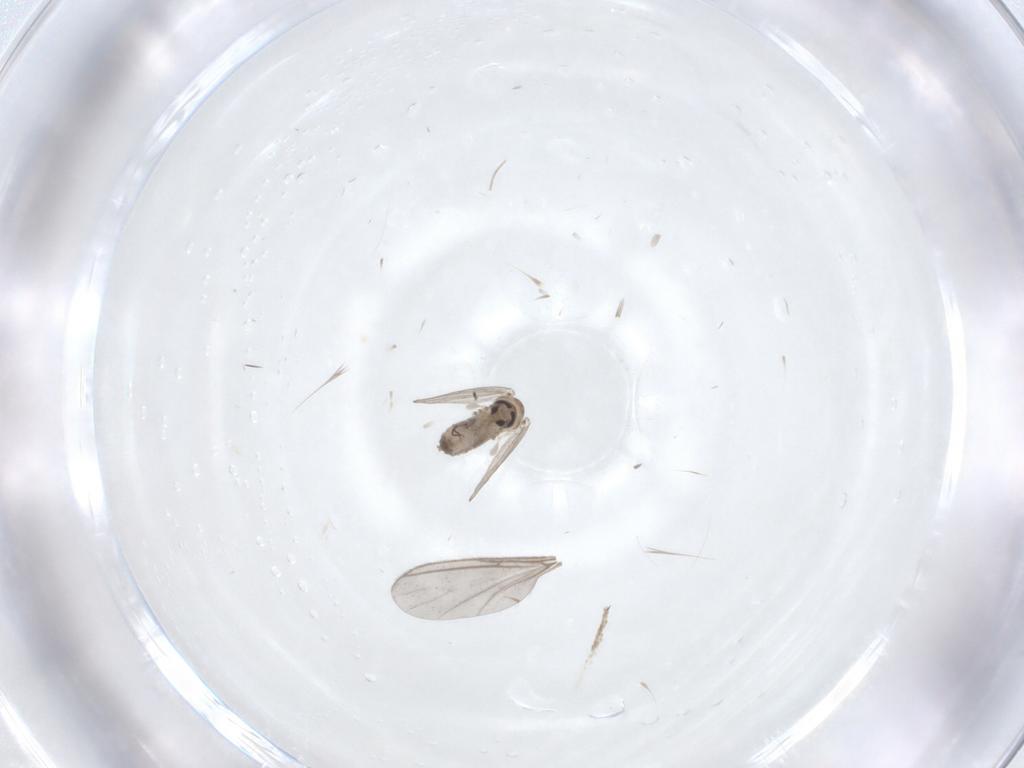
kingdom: Animalia
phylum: Arthropoda
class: Insecta
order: Diptera
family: Psychodidae
